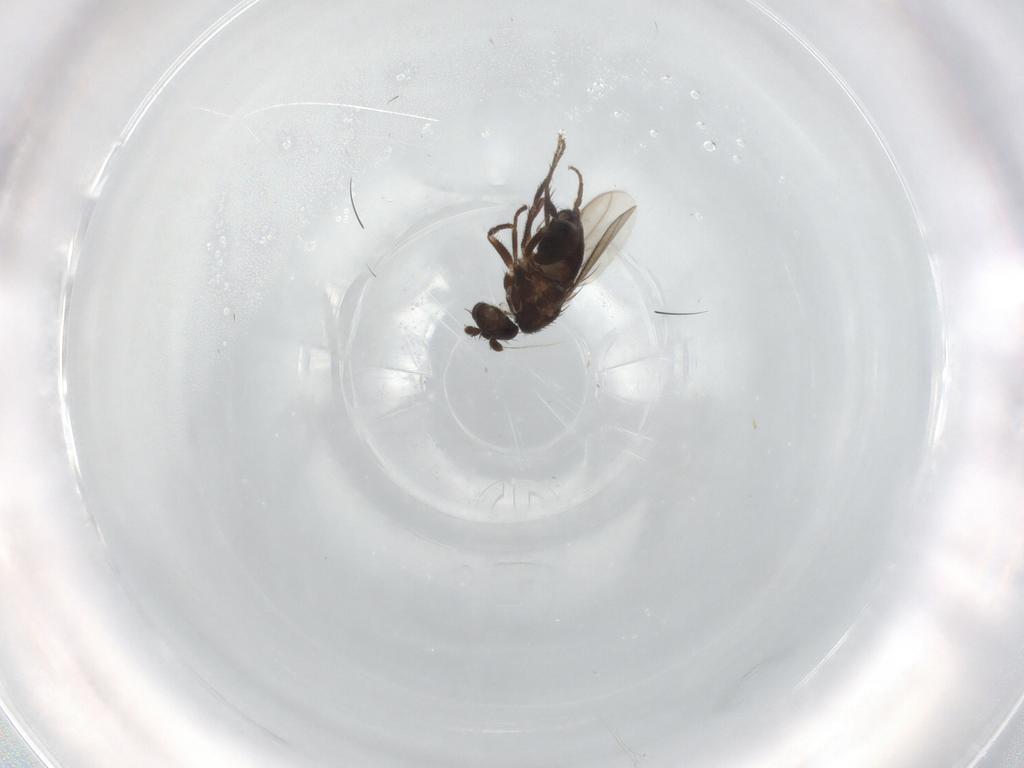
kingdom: Animalia
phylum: Arthropoda
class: Insecta
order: Diptera
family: Sphaeroceridae
